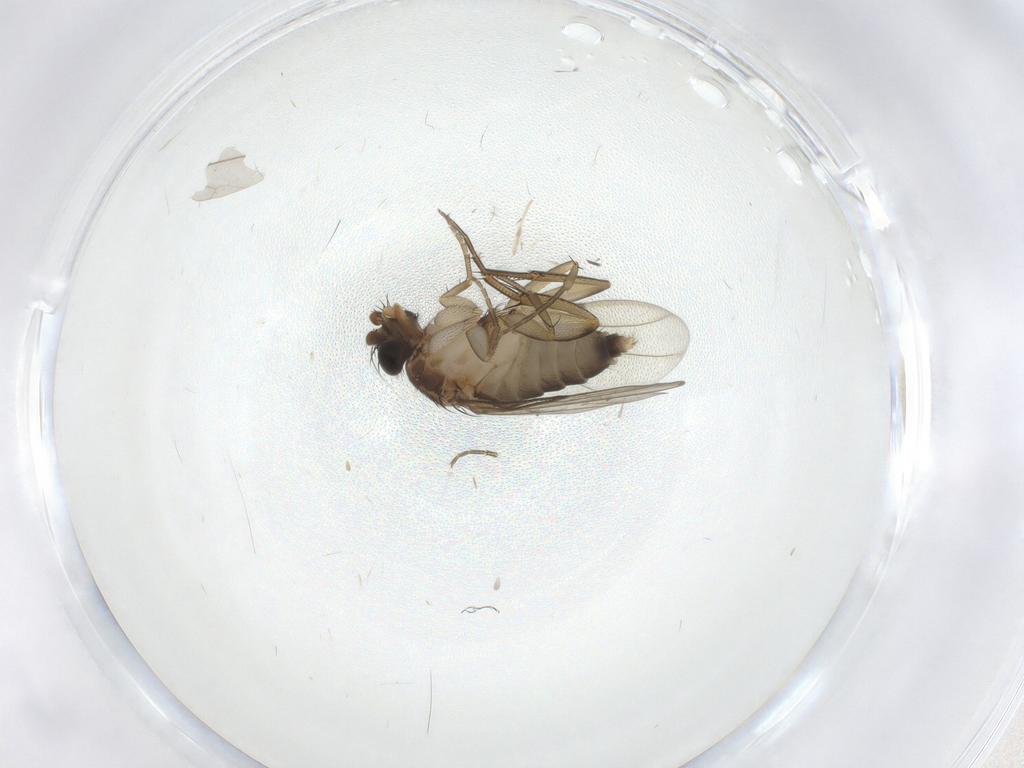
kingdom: Animalia
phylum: Arthropoda
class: Insecta
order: Diptera
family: Chironomidae
